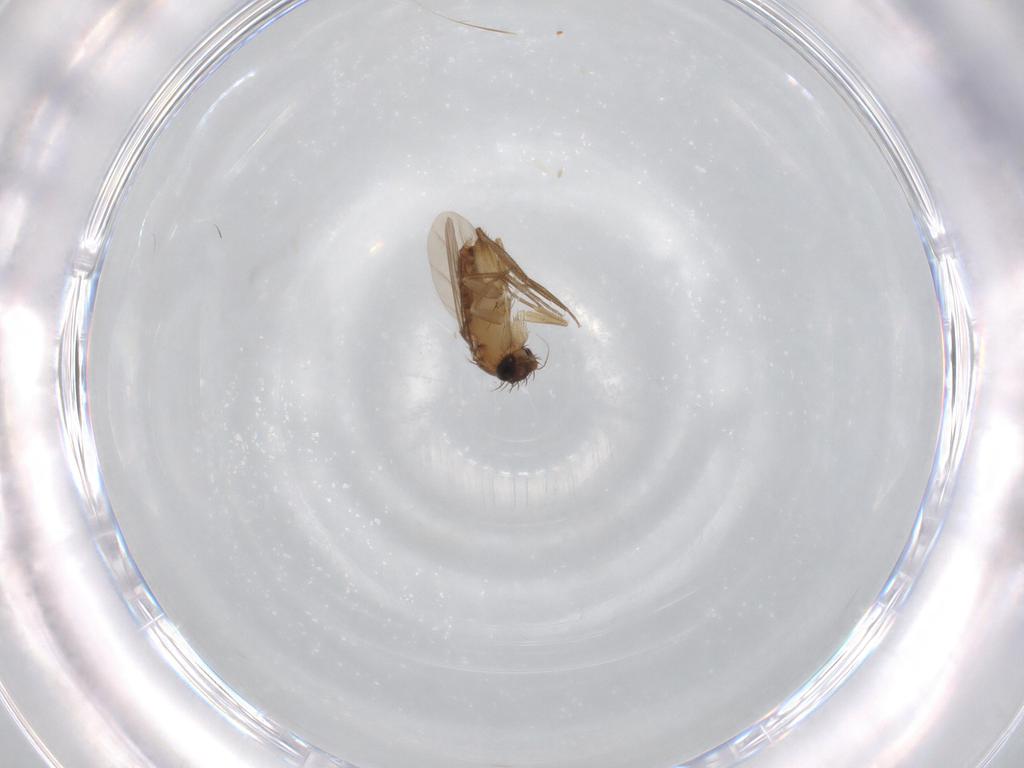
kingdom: Animalia
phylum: Arthropoda
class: Insecta
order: Diptera
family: Phoridae
